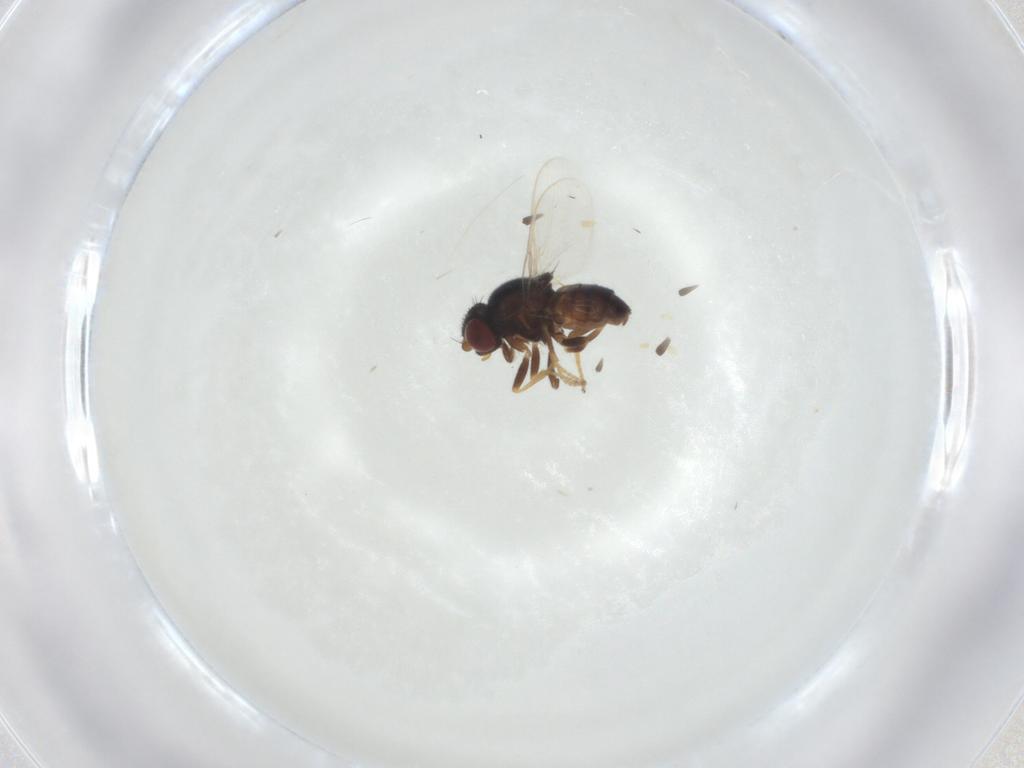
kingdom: Animalia
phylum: Arthropoda
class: Insecta
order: Diptera
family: Chloropidae
